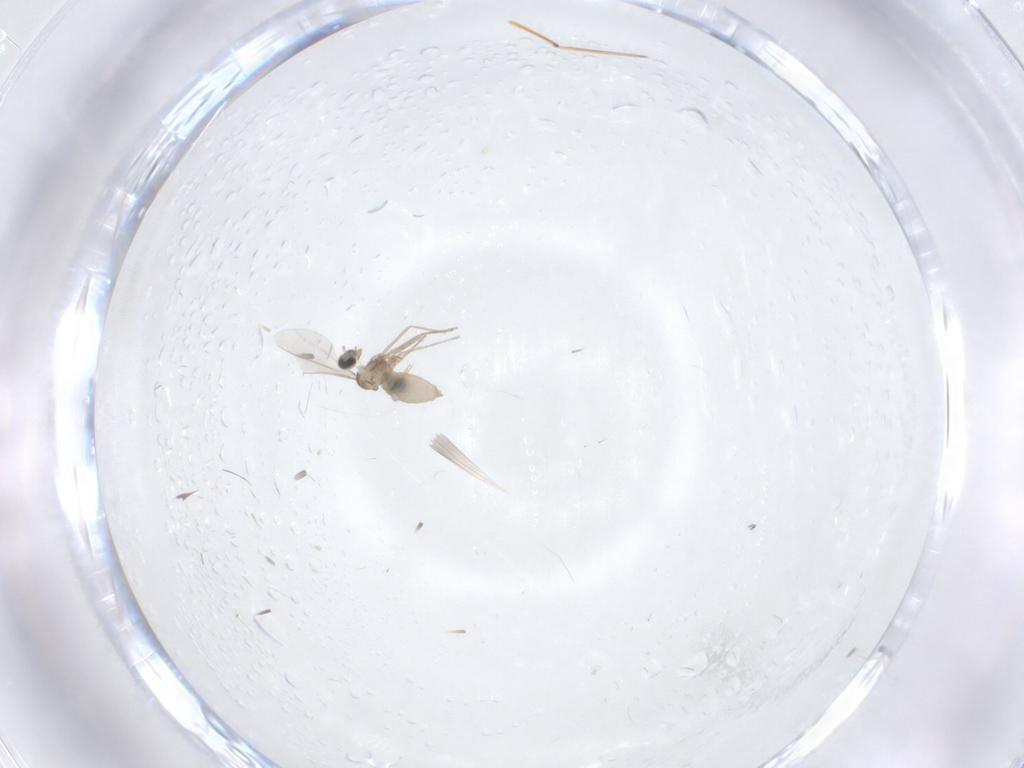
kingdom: Animalia
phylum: Arthropoda
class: Insecta
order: Diptera
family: Cecidomyiidae
